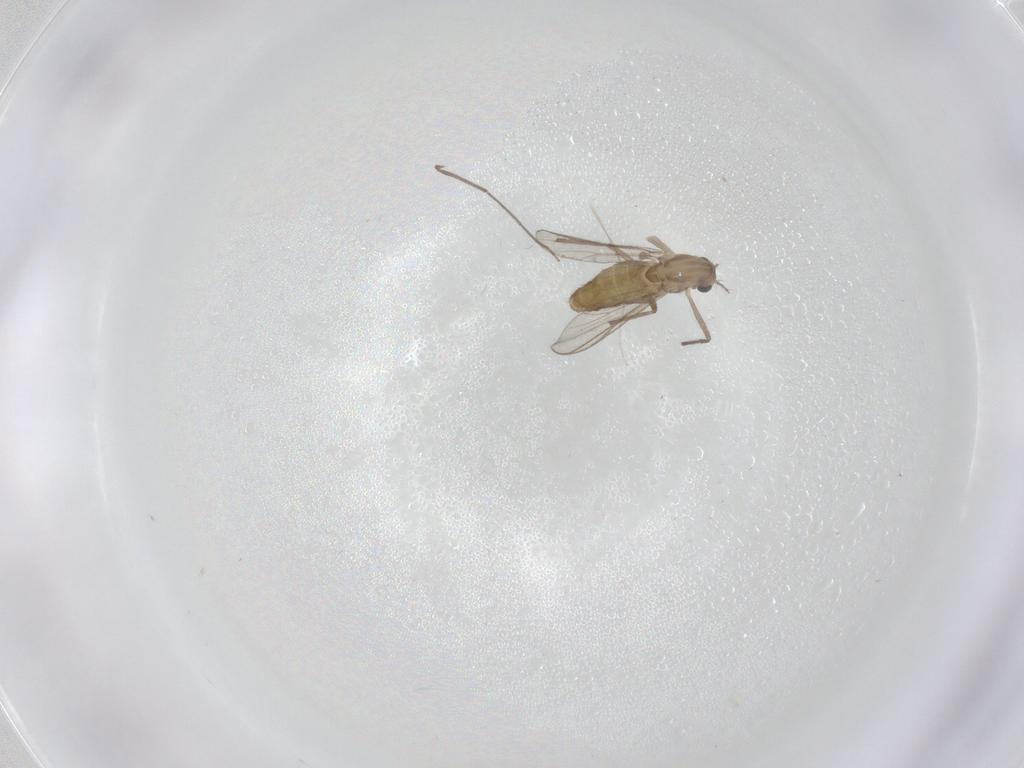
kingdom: Animalia
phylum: Arthropoda
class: Insecta
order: Diptera
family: Chironomidae
